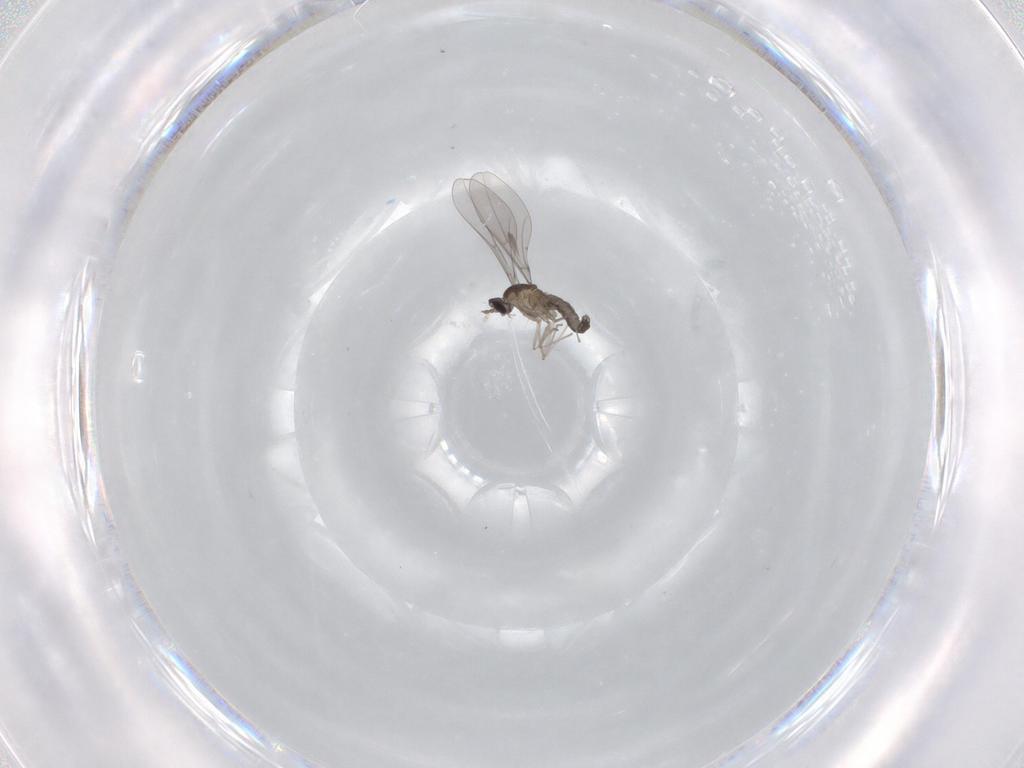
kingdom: Animalia
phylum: Arthropoda
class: Insecta
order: Diptera
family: Cecidomyiidae
